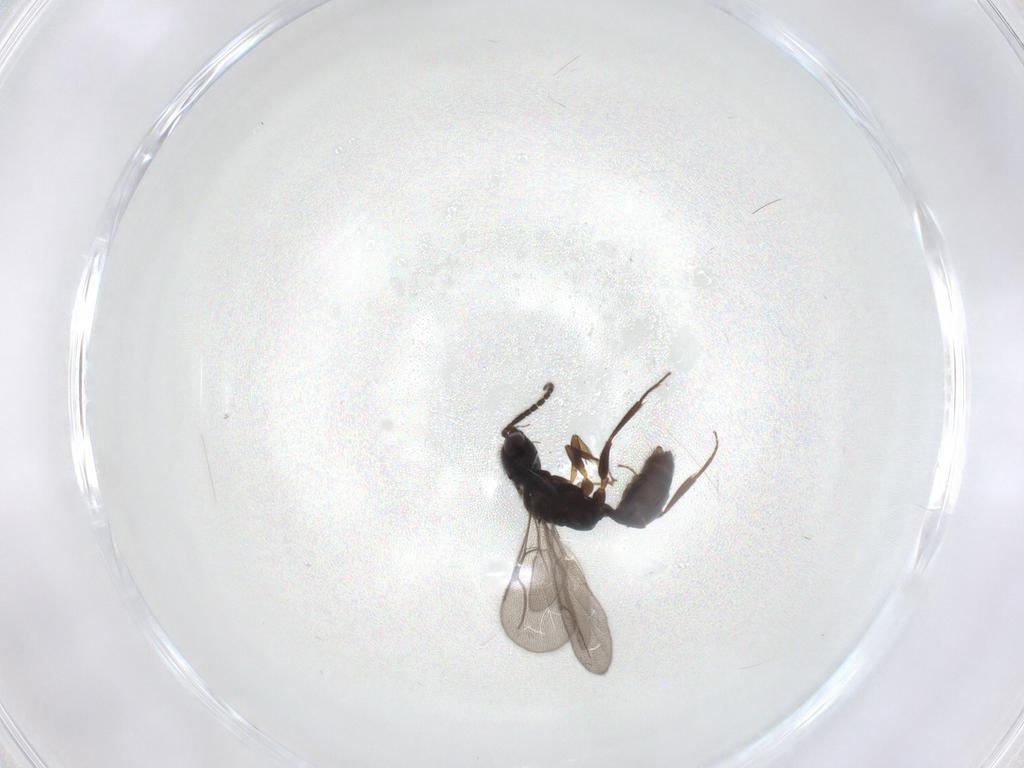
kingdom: Animalia
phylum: Arthropoda
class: Insecta
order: Hymenoptera
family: Bethylidae
